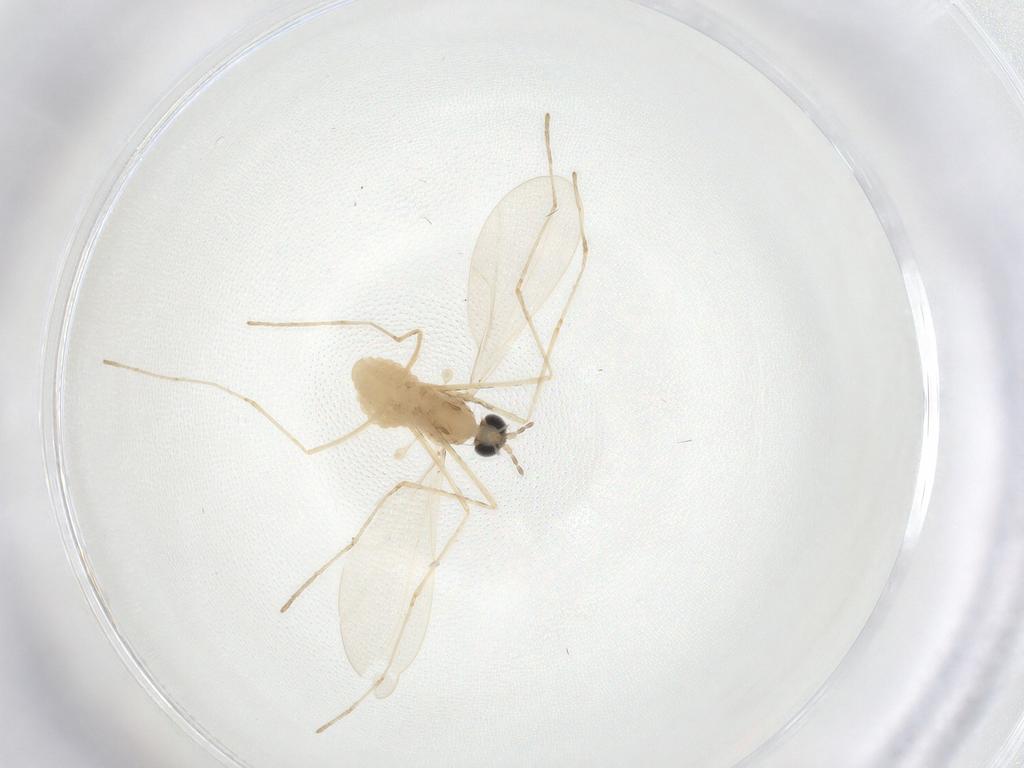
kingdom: Animalia
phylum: Arthropoda
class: Insecta
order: Diptera
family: Cecidomyiidae
